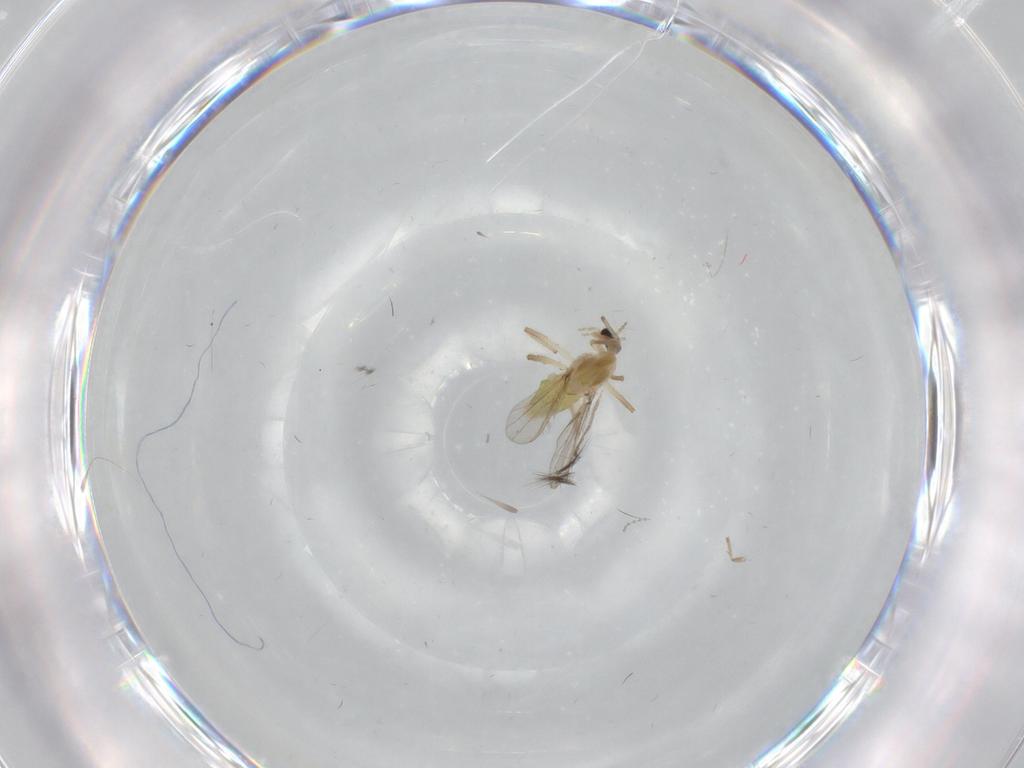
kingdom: Animalia
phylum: Arthropoda
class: Insecta
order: Diptera
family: Chironomidae
